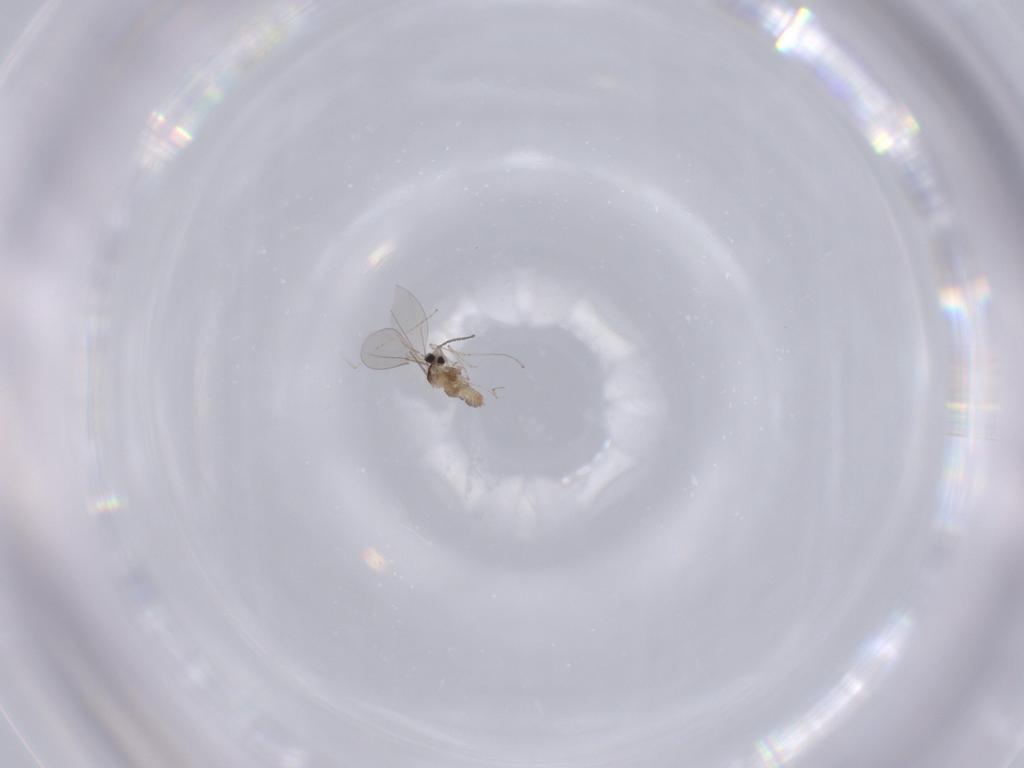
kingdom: Animalia
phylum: Arthropoda
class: Insecta
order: Diptera
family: Cecidomyiidae
